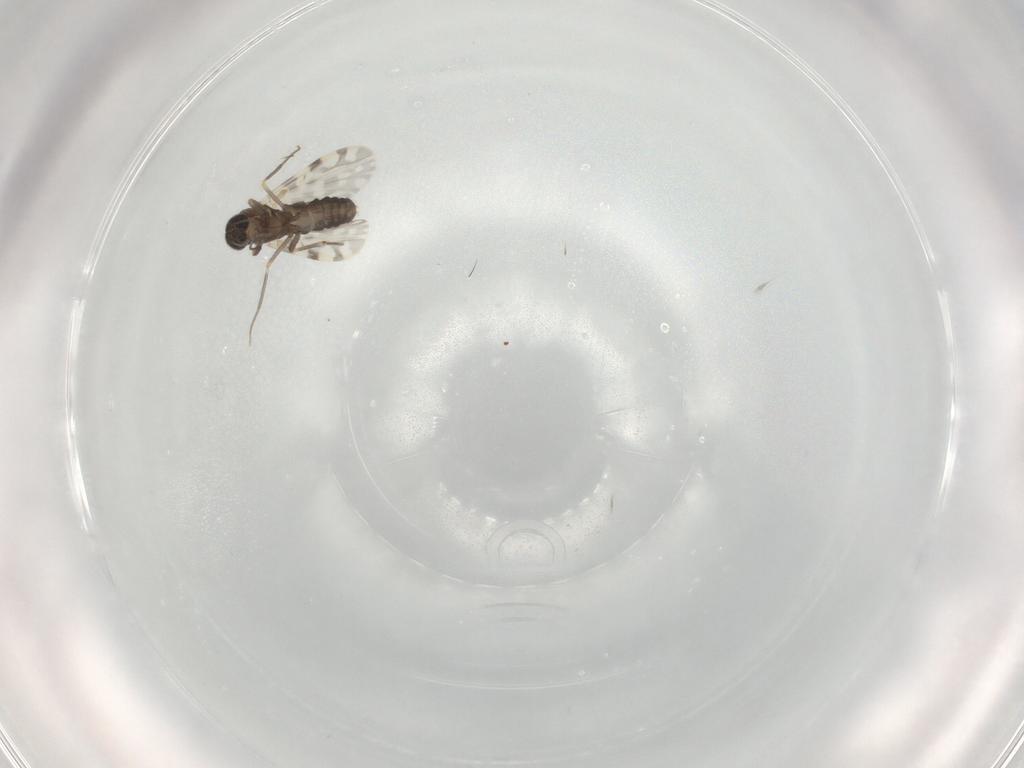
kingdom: Animalia
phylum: Arthropoda
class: Insecta
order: Diptera
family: Ceratopogonidae
